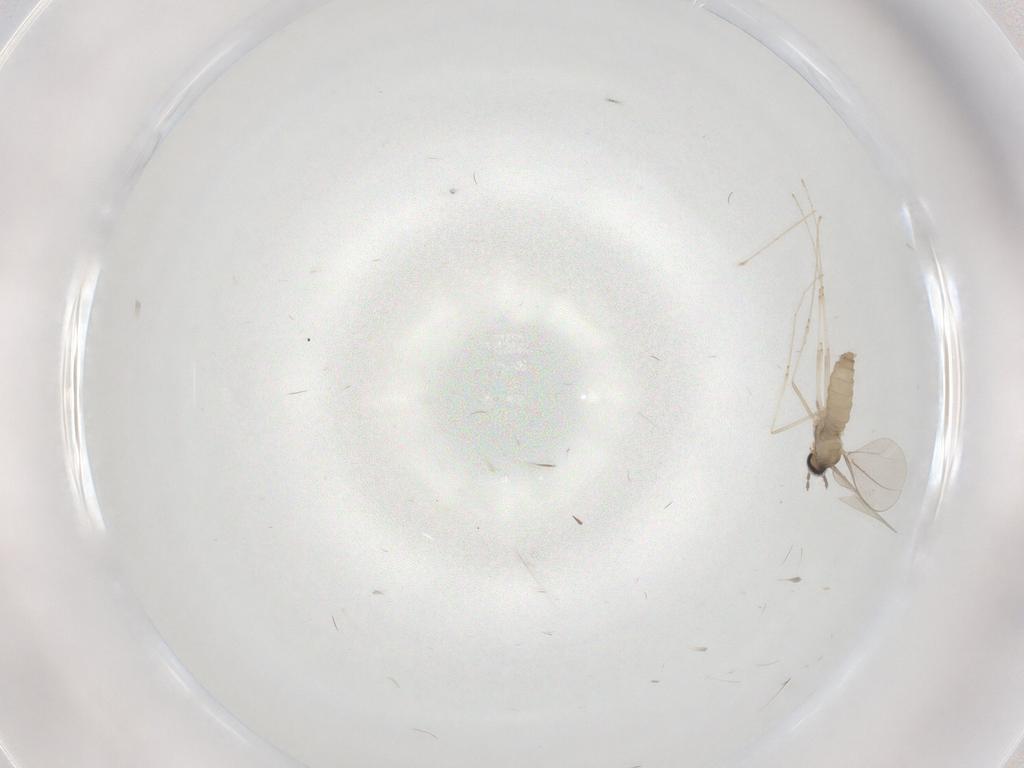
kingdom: Animalia
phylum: Arthropoda
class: Insecta
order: Diptera
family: Cecidomyiidae
